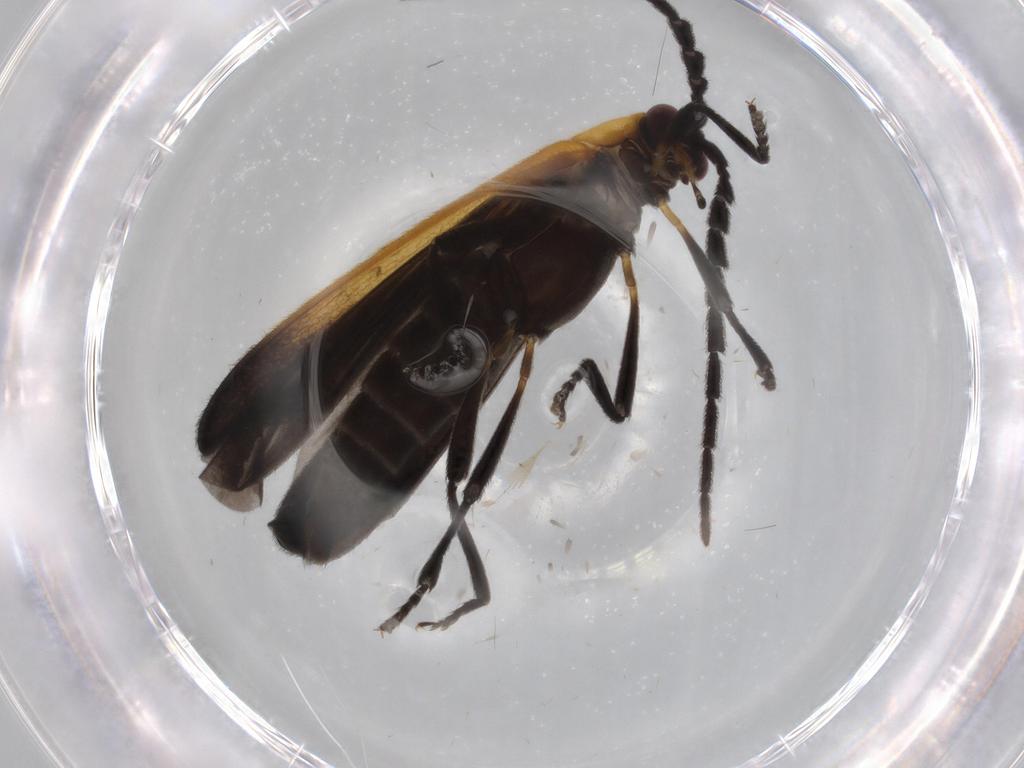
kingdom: Animalia
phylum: Arthropoda
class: Insecta
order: Coleoptera
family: Lycidae
